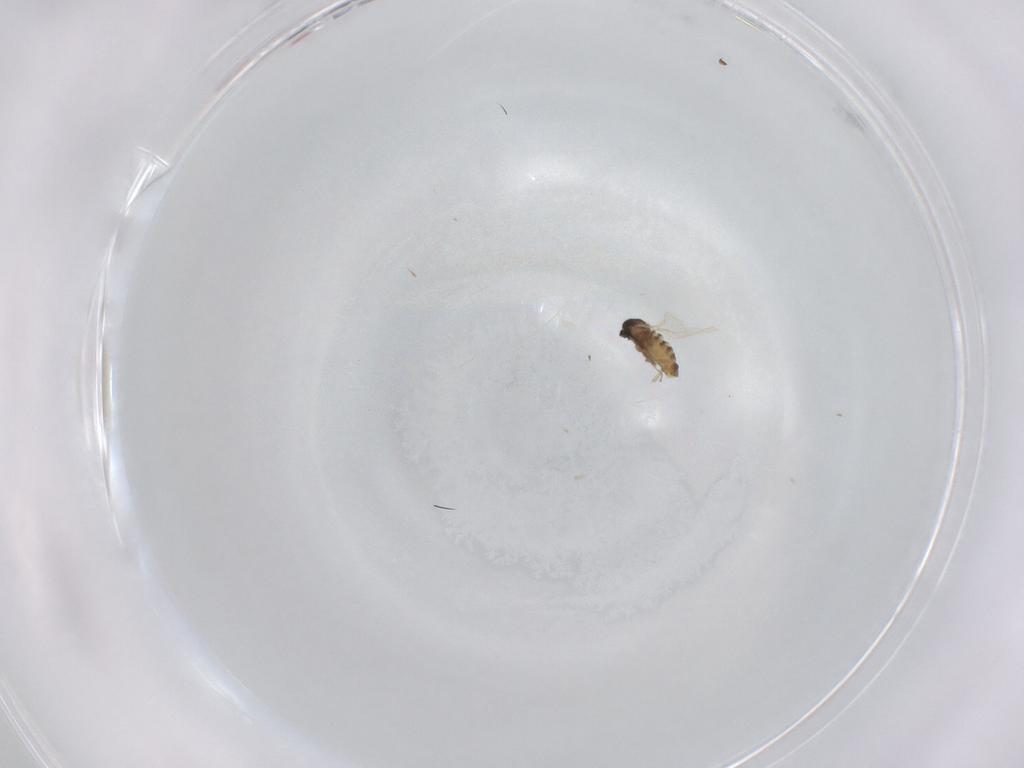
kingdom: Animalia
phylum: Arthropoda
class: Insecta
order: Diptera
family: Cecidomyiidae
